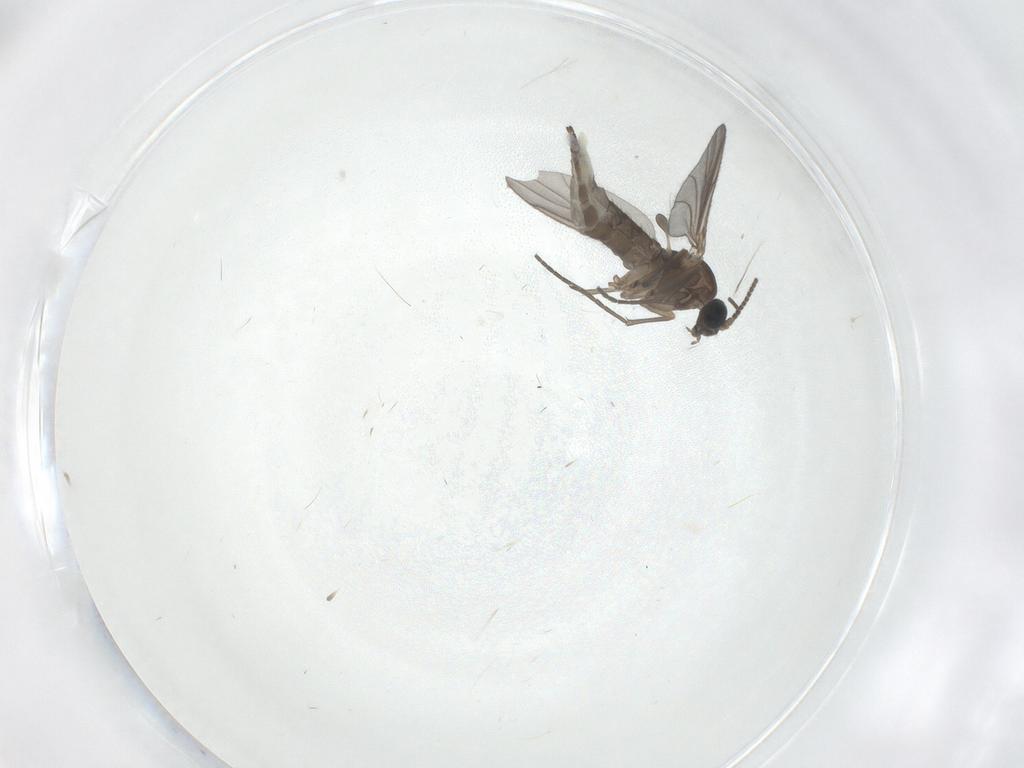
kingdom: Animalia
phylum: Arthropoda
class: Insecta
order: Diptera
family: Sciaridae
